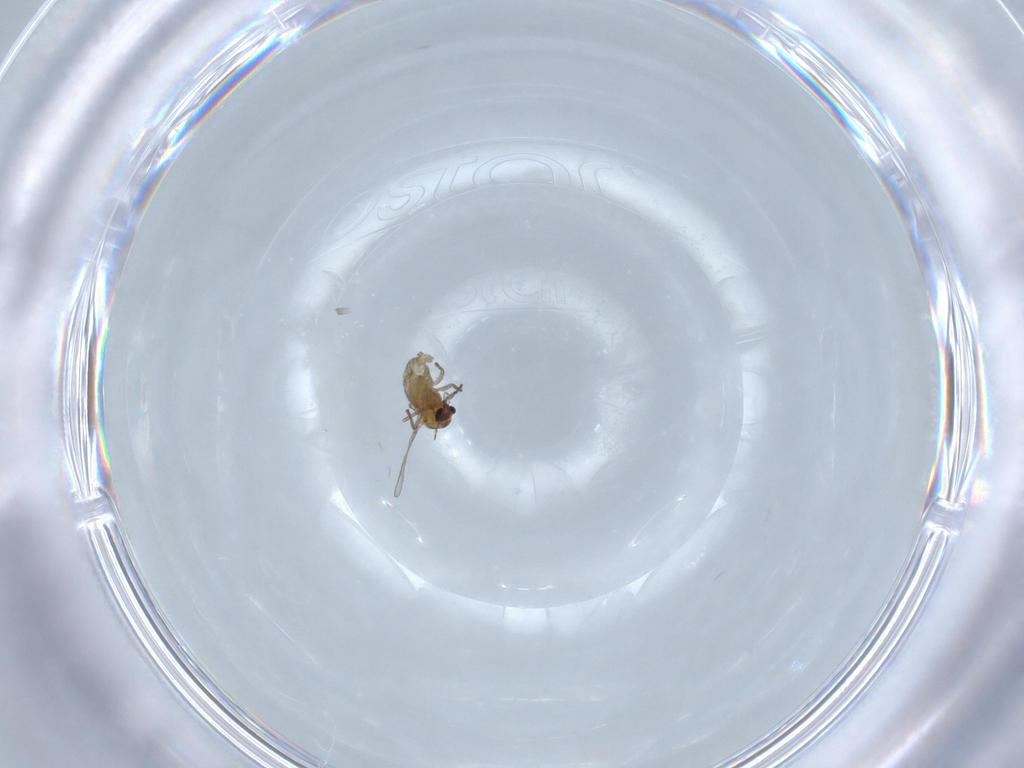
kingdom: Animalia
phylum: Arthropoda
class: Insecta
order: Diptera
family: Chironomidae
